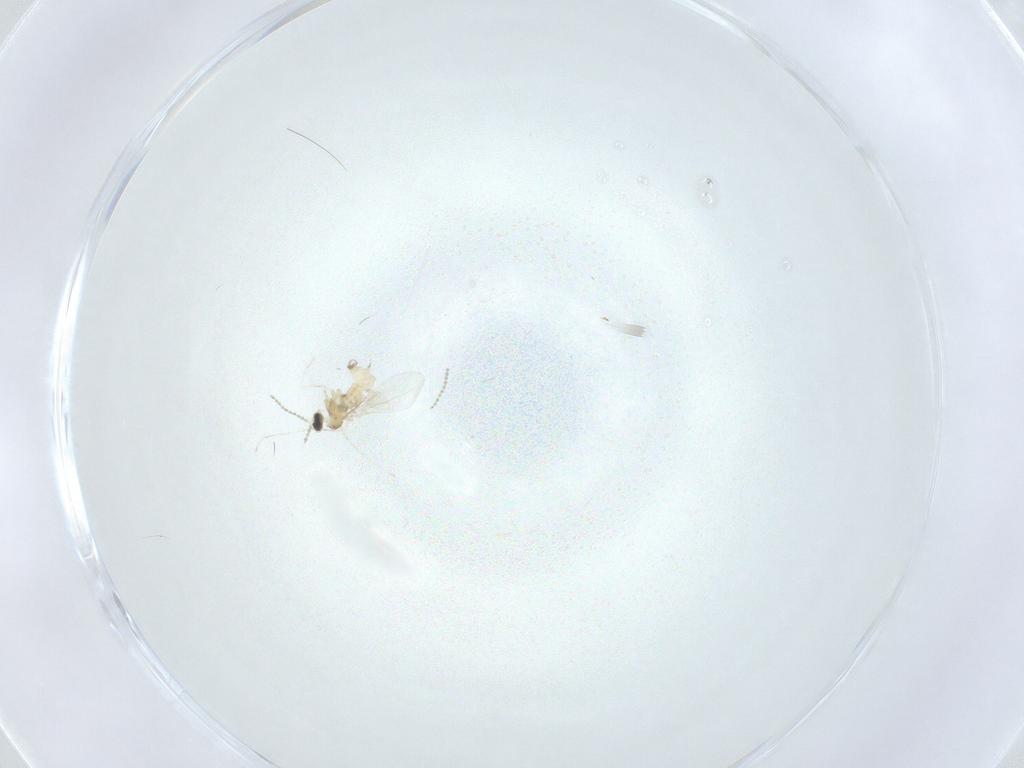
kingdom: Animalia
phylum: Arthropoda
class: Insecta
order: Diptera
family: Cecidomyiidae
